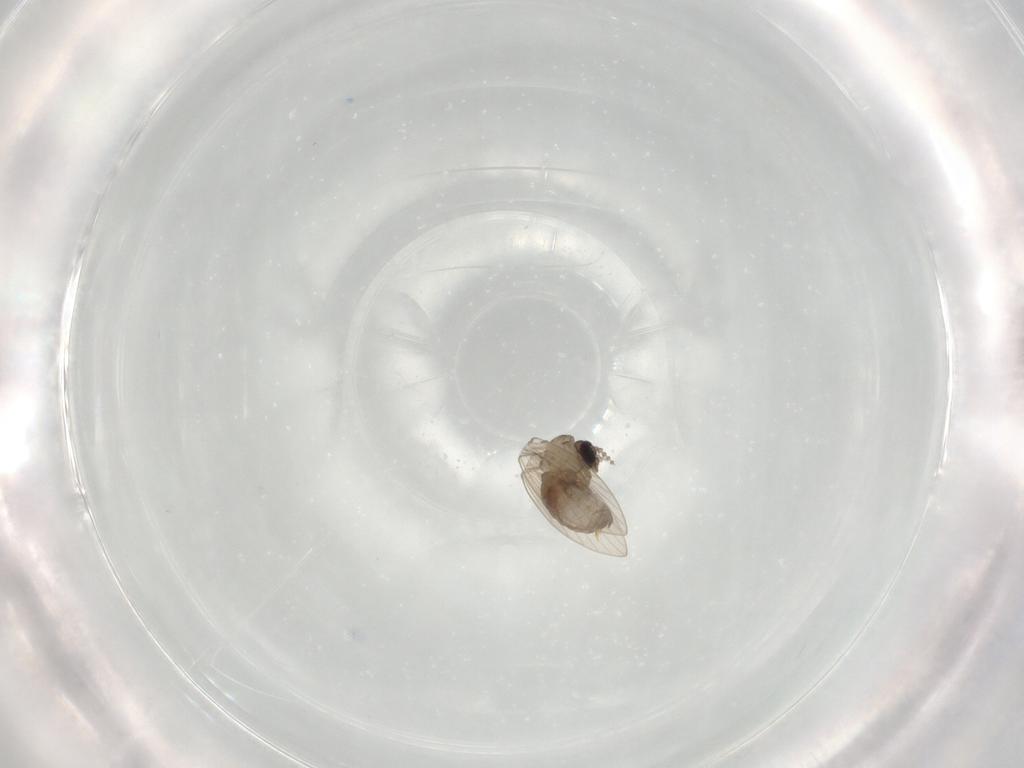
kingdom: Animalia
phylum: Arthropoda
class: Insecta
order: Diptera
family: Psychodidae
